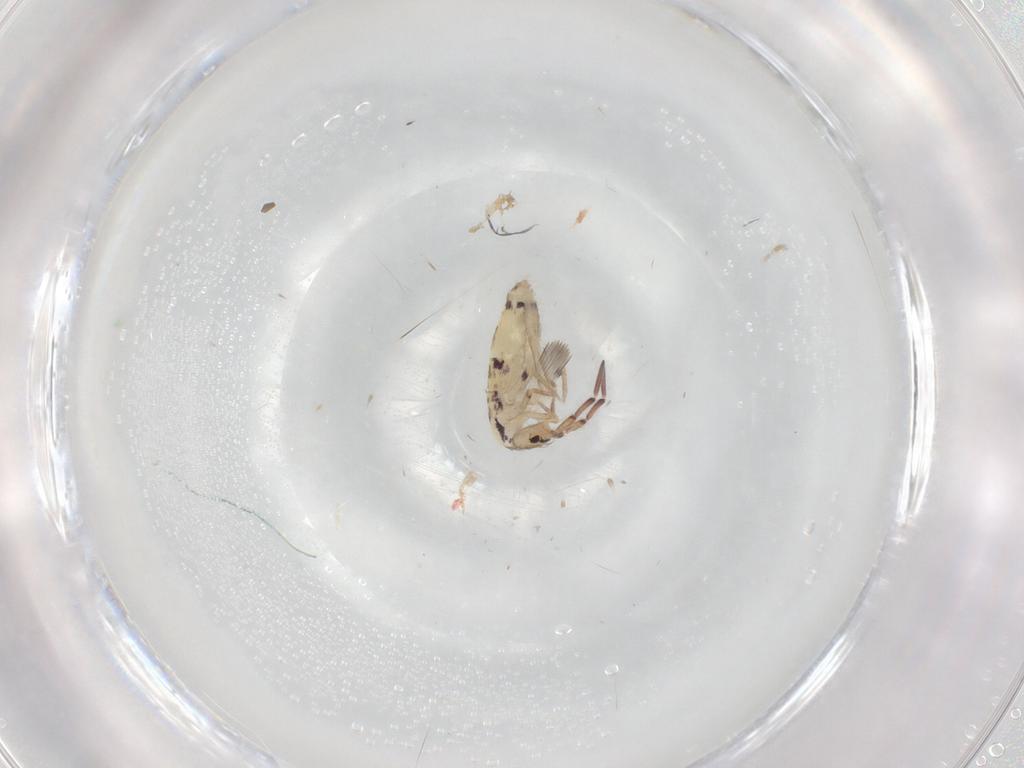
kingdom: Animalia
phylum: Arthropoda
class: Collembola
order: Entomobryomorpha
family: Entomobryidae
